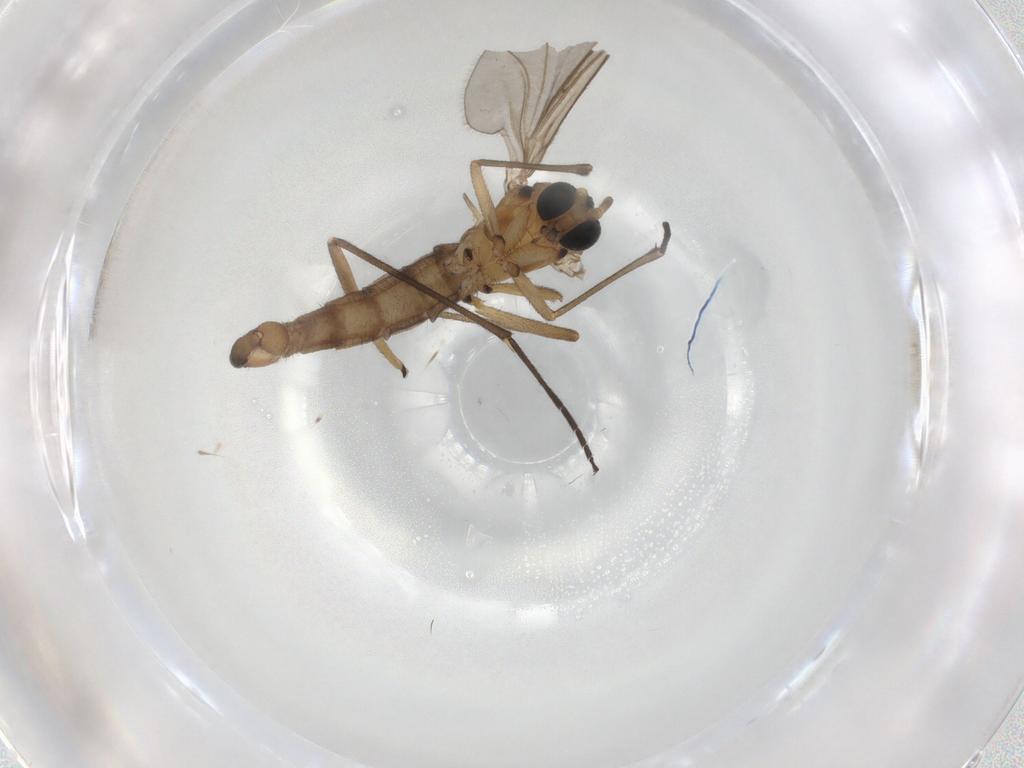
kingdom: Animalia
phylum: Arthropoda
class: Insecta
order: Diptera
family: Sciaridae
